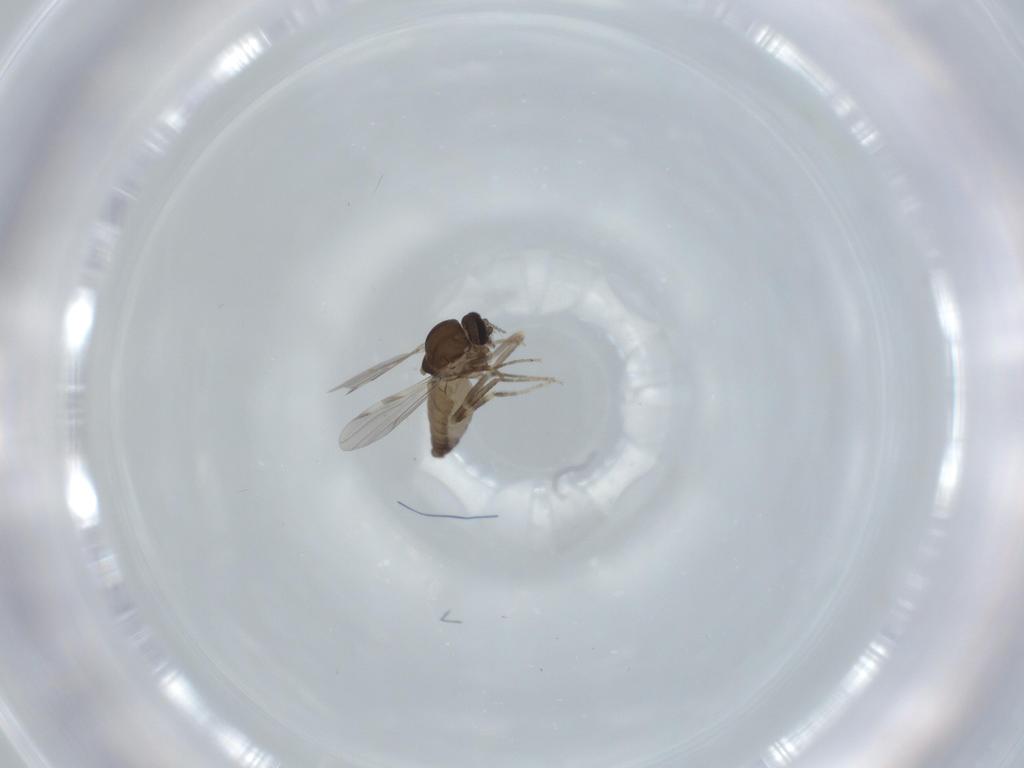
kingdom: Animalia
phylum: Arthropoda
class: Insecta
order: Diptera
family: Ceratopogonidae
